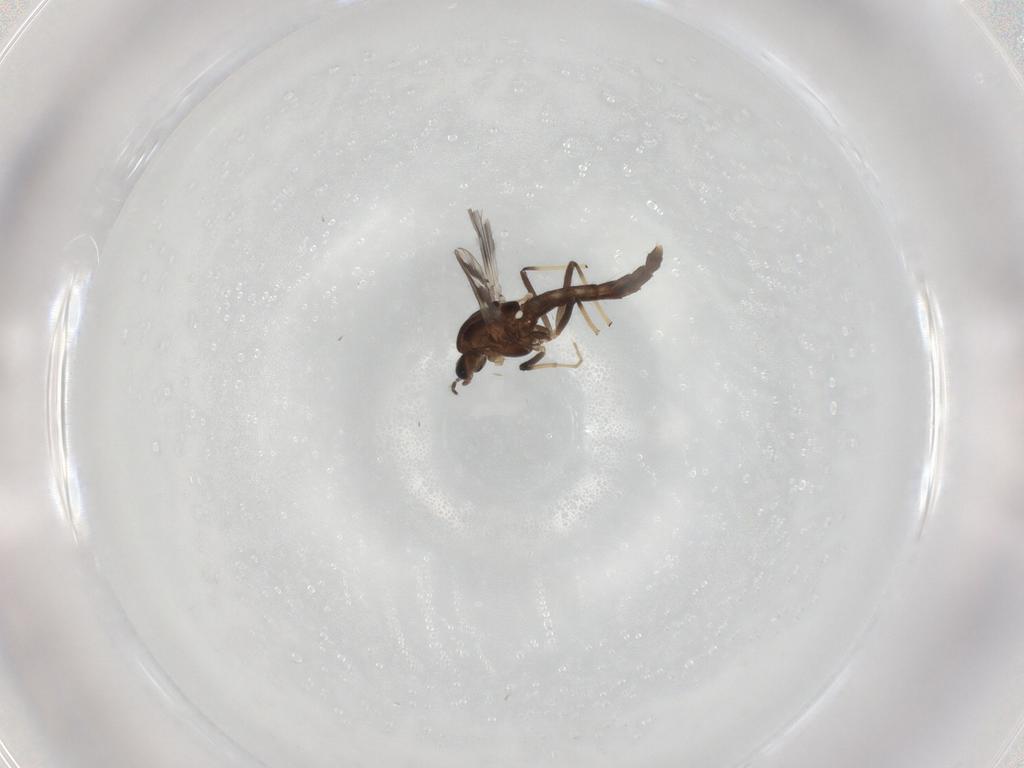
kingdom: Animalia
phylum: Arthropoda
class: Insecta
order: Diptera
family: Chironomidae
